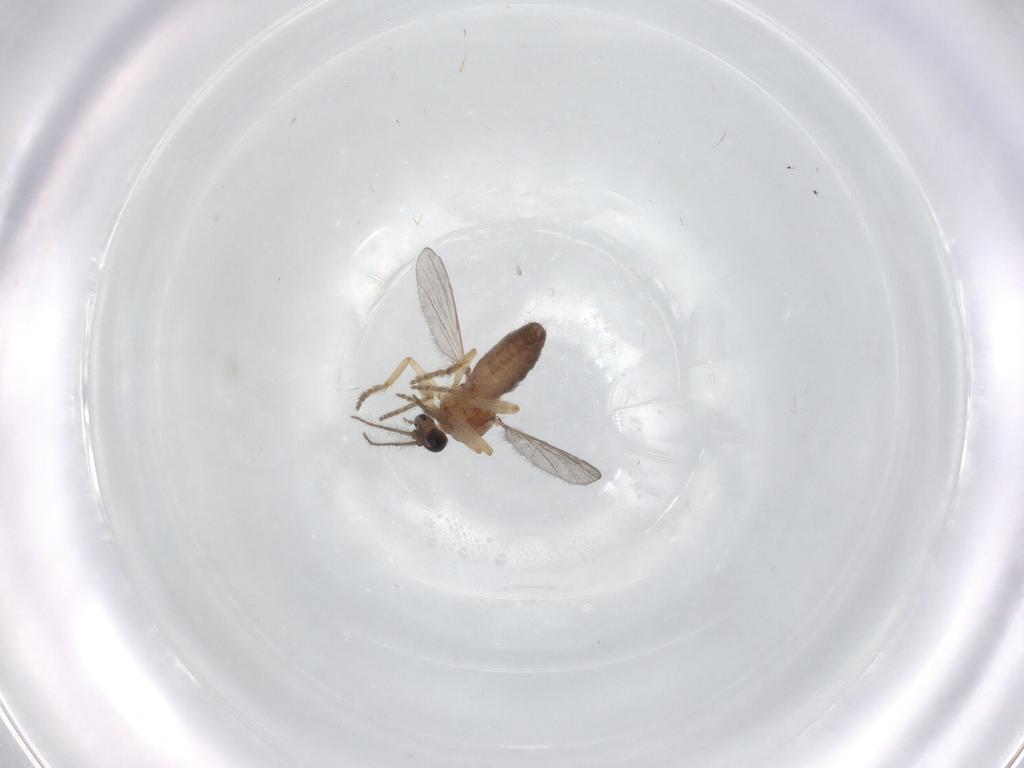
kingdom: Animalia
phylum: Arthropoda
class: Insecta
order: Diptera
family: Ceratopogonidae
